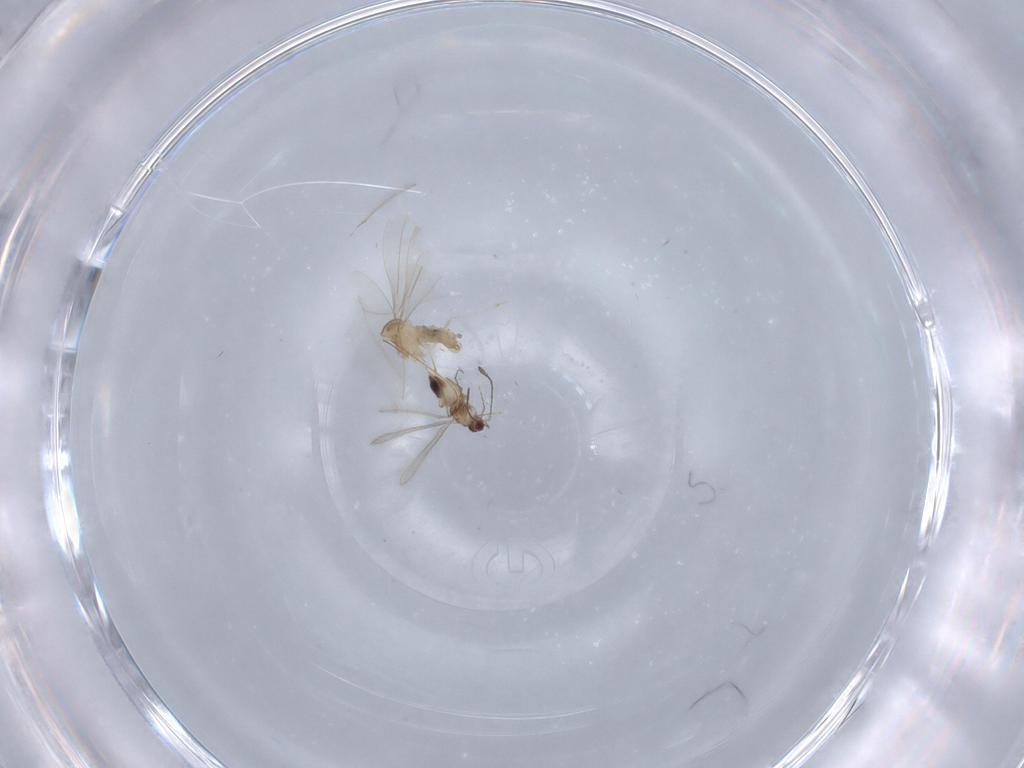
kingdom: Animalia
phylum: Arthropoda
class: Insecta
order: Diptera
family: Cecidomyiidae
